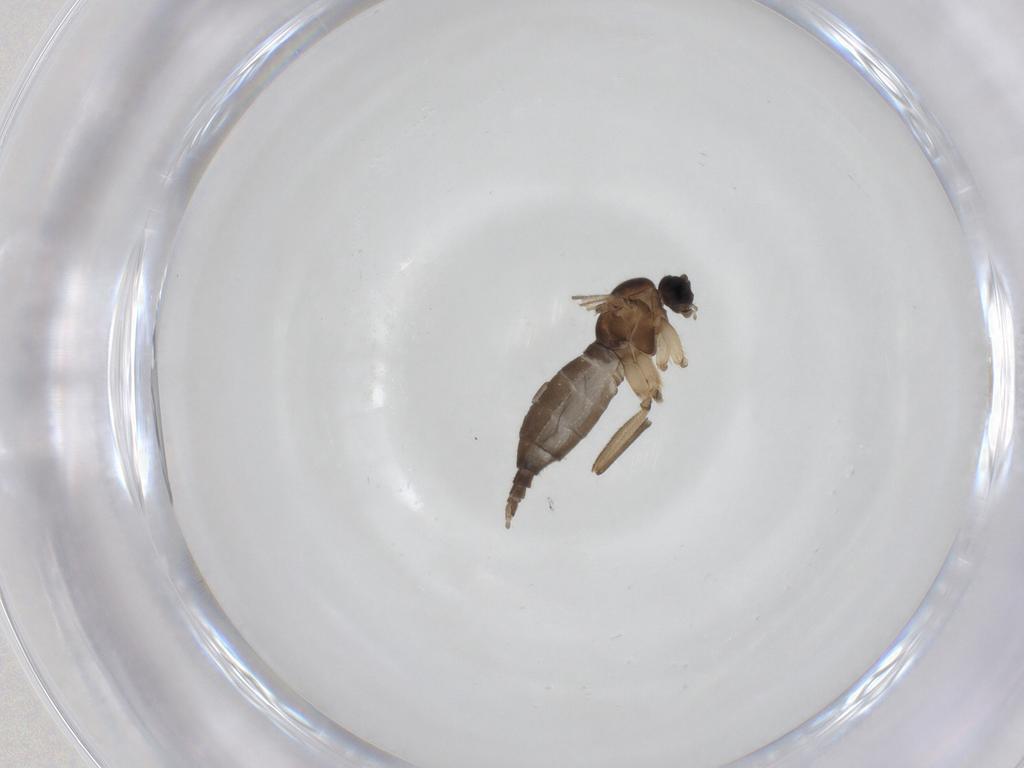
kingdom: Animalia
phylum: Arthropoda
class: Insecta
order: Diptera
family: Sciaridae
